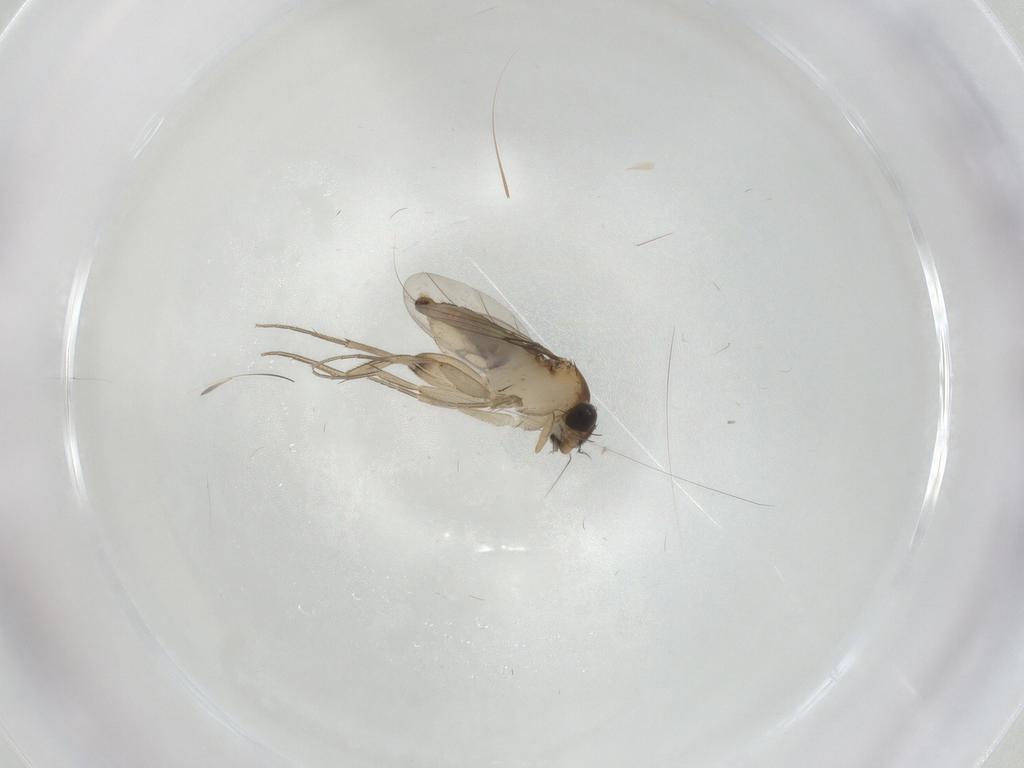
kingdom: Animalia
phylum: Arthropoda
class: Insecta
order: Diptera
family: Phoridae
